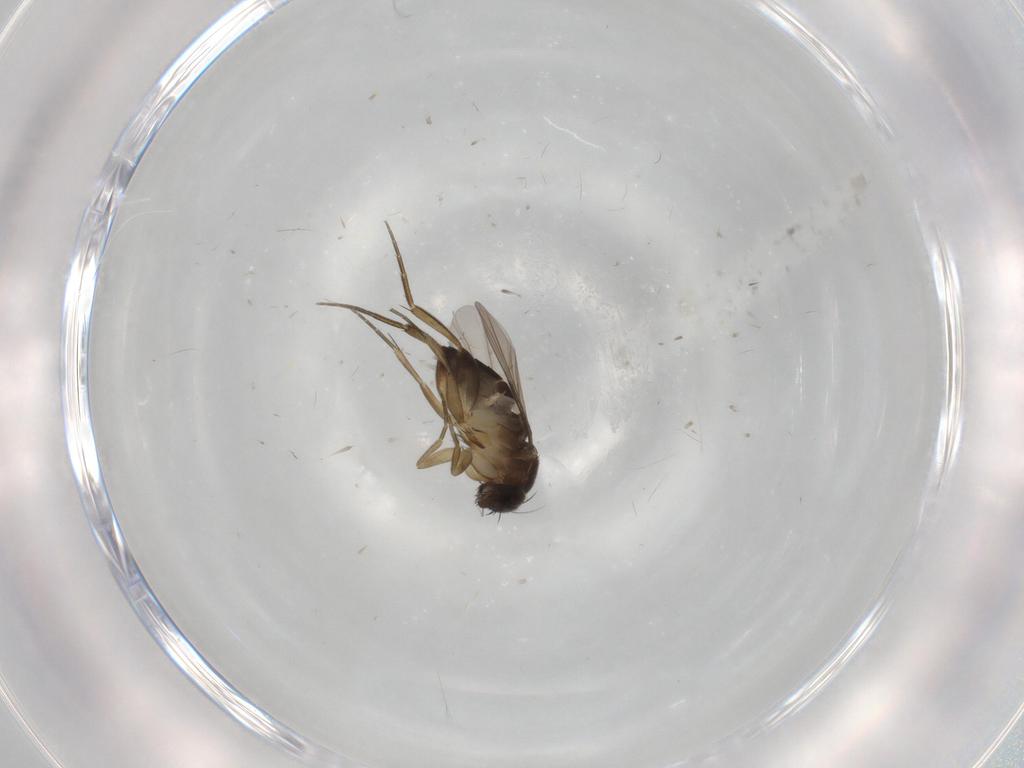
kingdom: Animalia
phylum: Arthropoda
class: Insecta
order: Diptera
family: Phoridae
